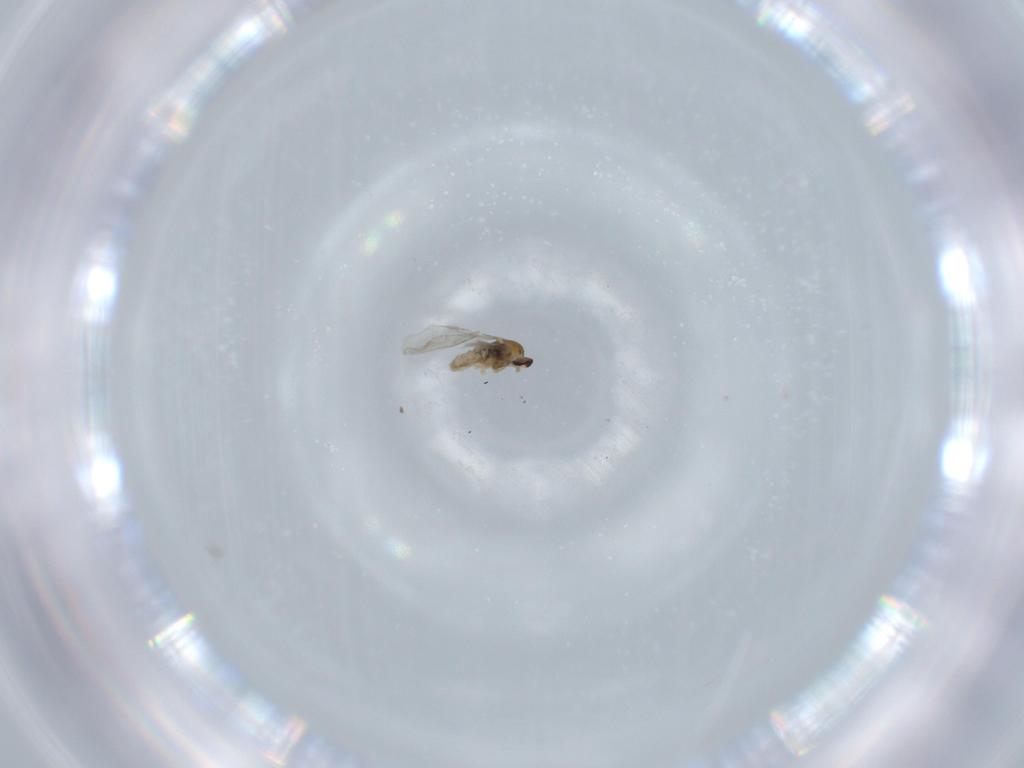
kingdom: Animalia
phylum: Arthropoda
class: Insecta
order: Diptera
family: Cecidomyiidae
